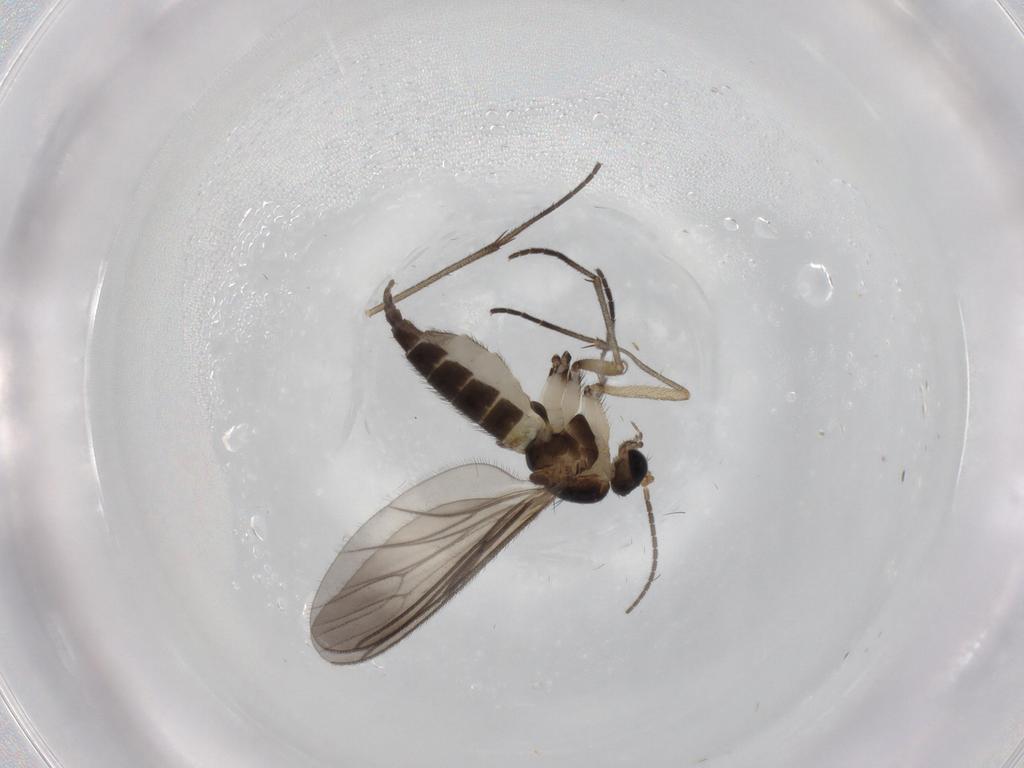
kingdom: Animalia
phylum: Arthropoda
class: Insecta
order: Diptera
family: Sciaridae
